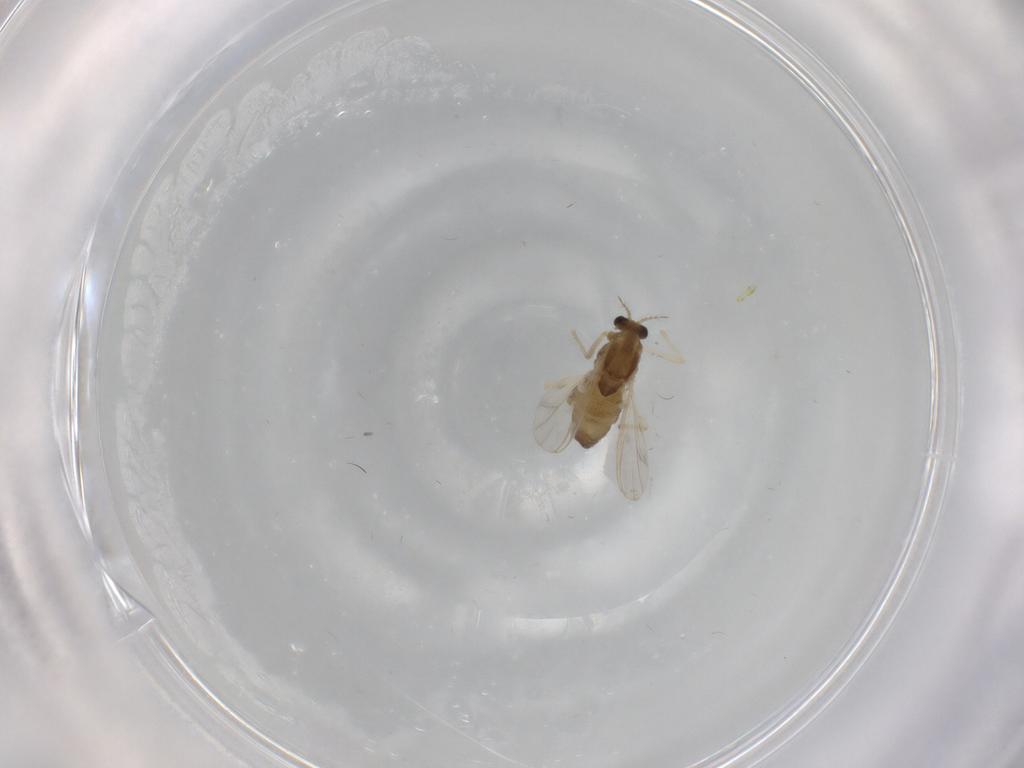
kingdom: Animalia
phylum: Arthropoda
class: Insecta
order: Diptera
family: Chironomidae
